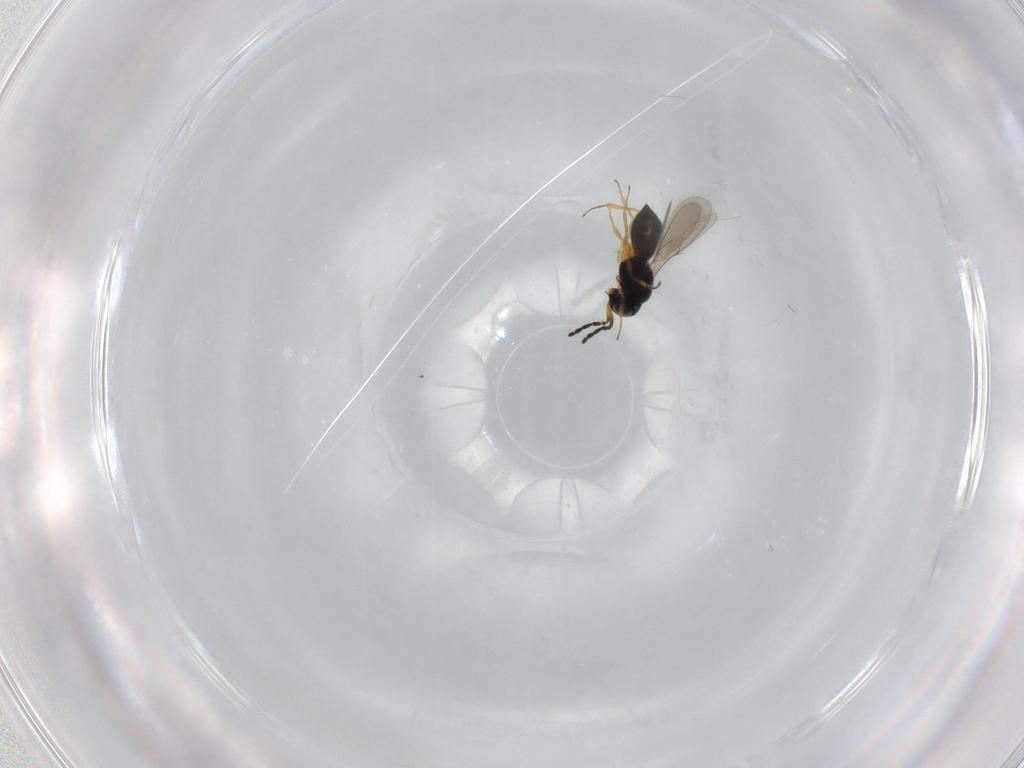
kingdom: Animalia
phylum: Arthropoda
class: Insecta
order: Hymenoptera
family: Scelionidae
